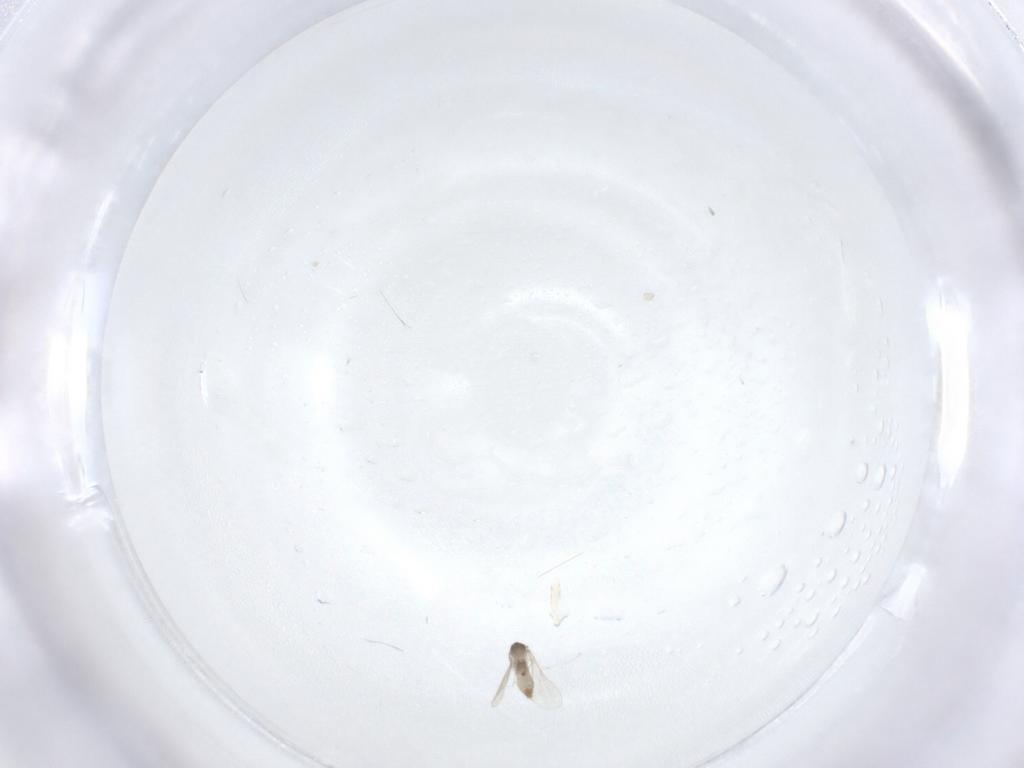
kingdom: Animalia
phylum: Arthropoda
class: Insecta
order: Diptera
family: Cecidomyiidae
